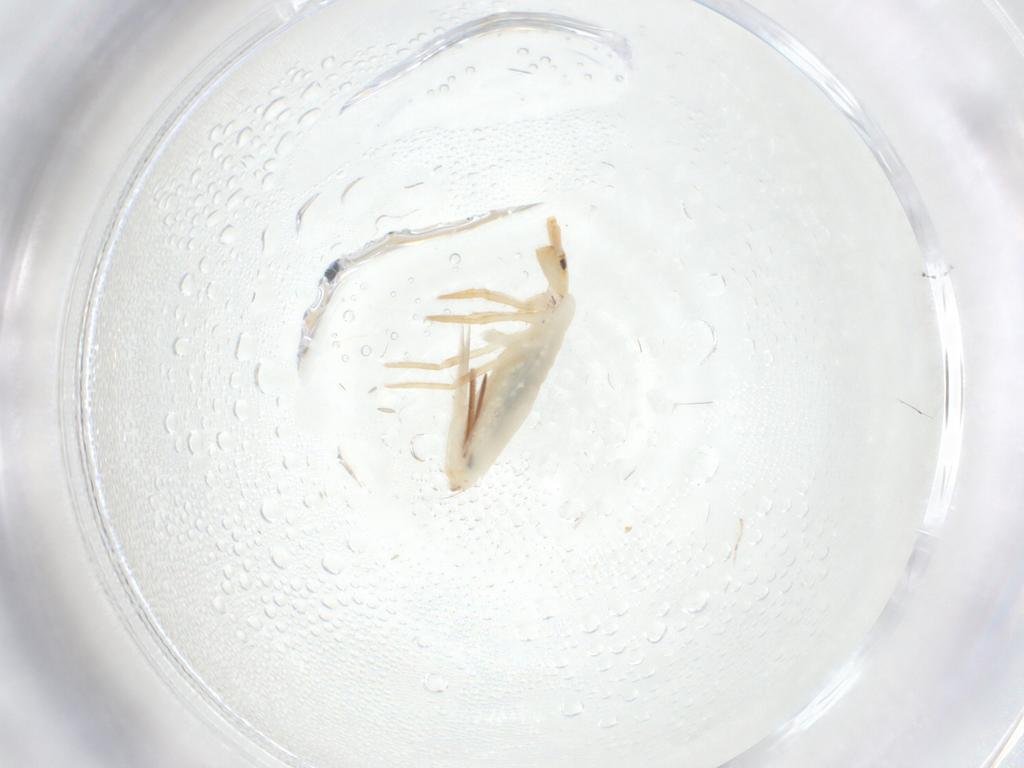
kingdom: Animalia
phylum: Arthropoda
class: Collembola
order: Entomobryomorpha
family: Entomobryidae
